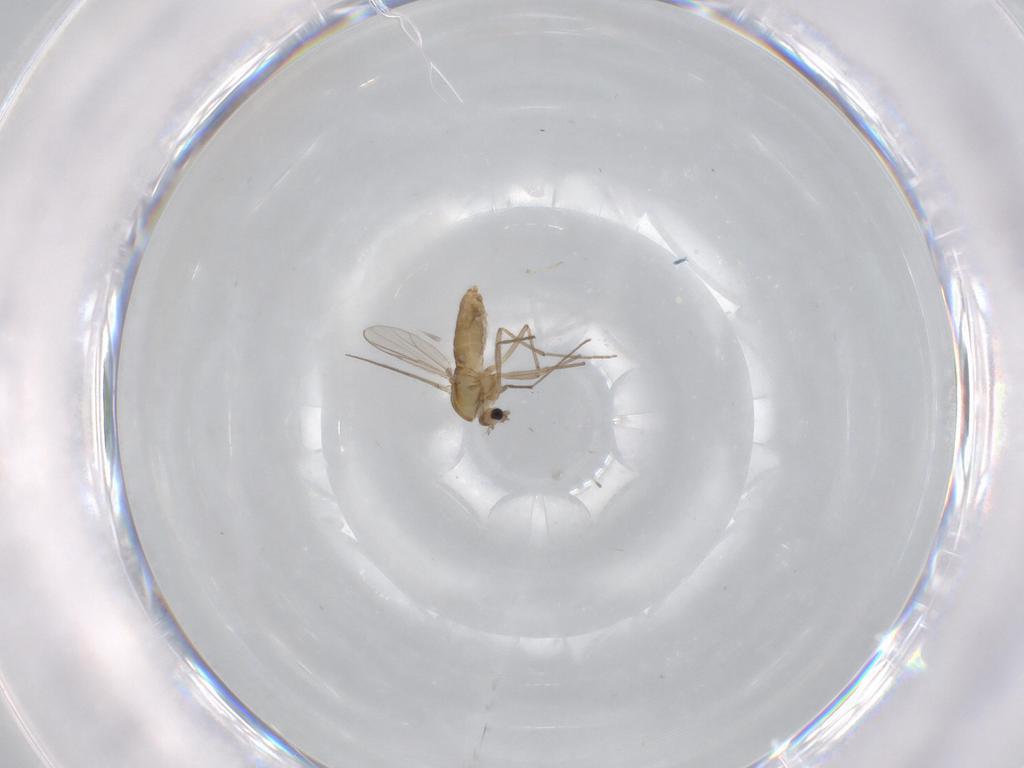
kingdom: Animalia
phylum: Arthropoda
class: Insecta
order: Diptera
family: Chironomidae
